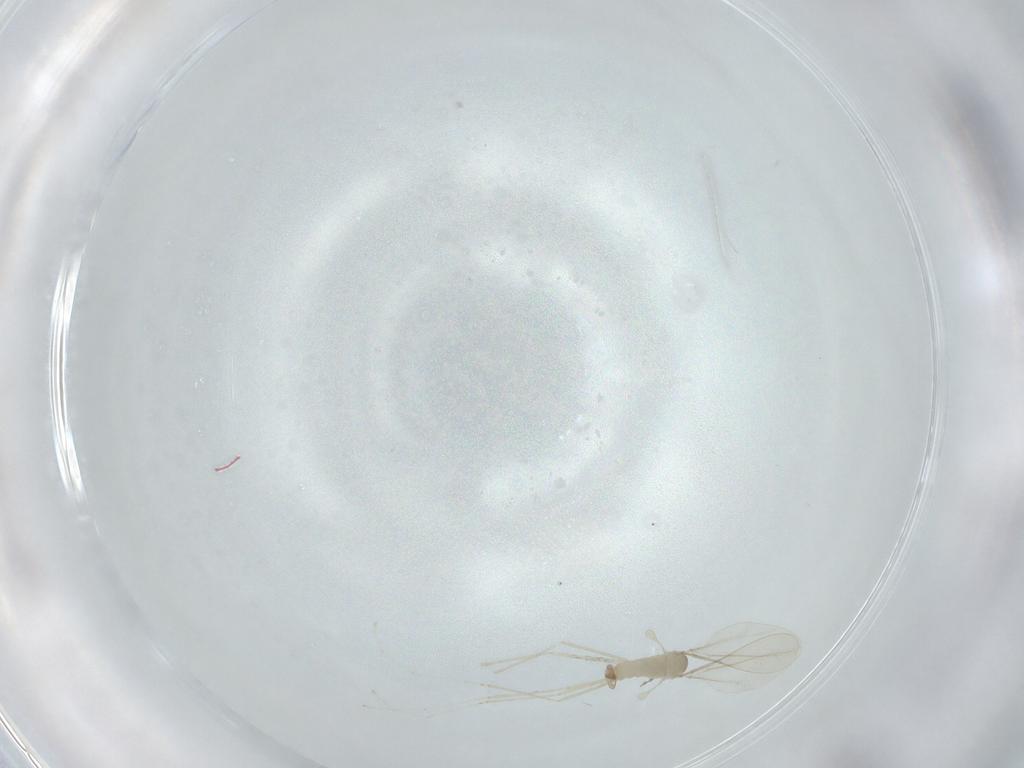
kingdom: Animalia
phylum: Arthropoda
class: Insecta
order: Diptera
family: Cecidomyiidae
